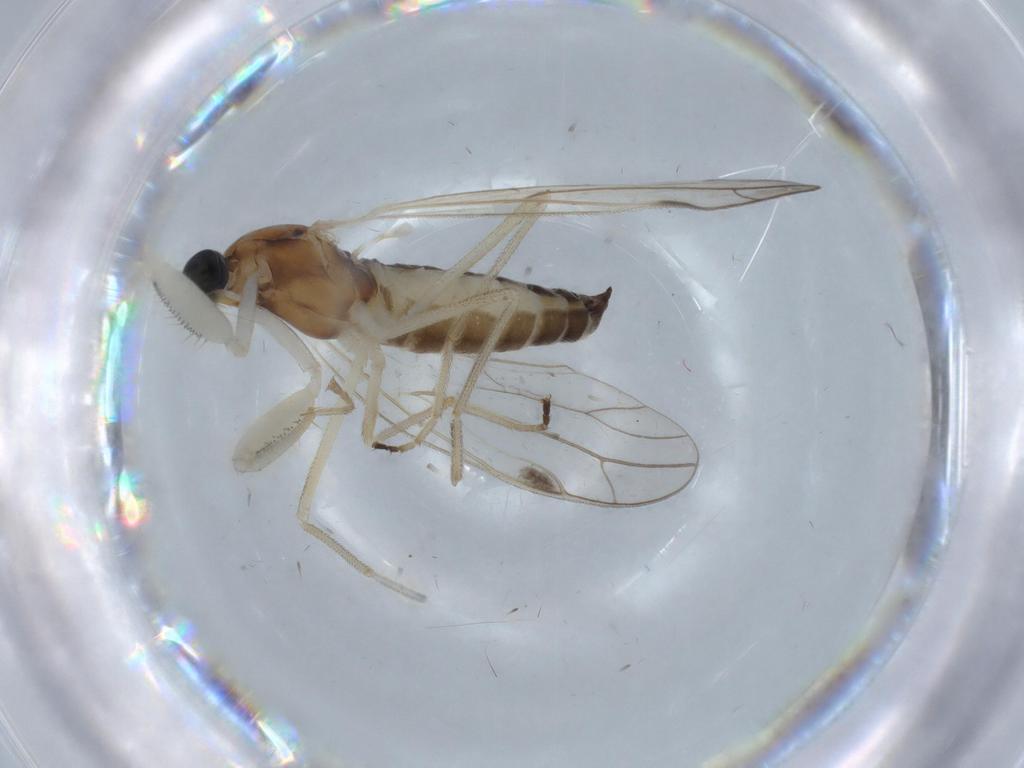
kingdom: Animalia
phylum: Arthropoda
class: Insecta
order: Diptera
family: Empididae
